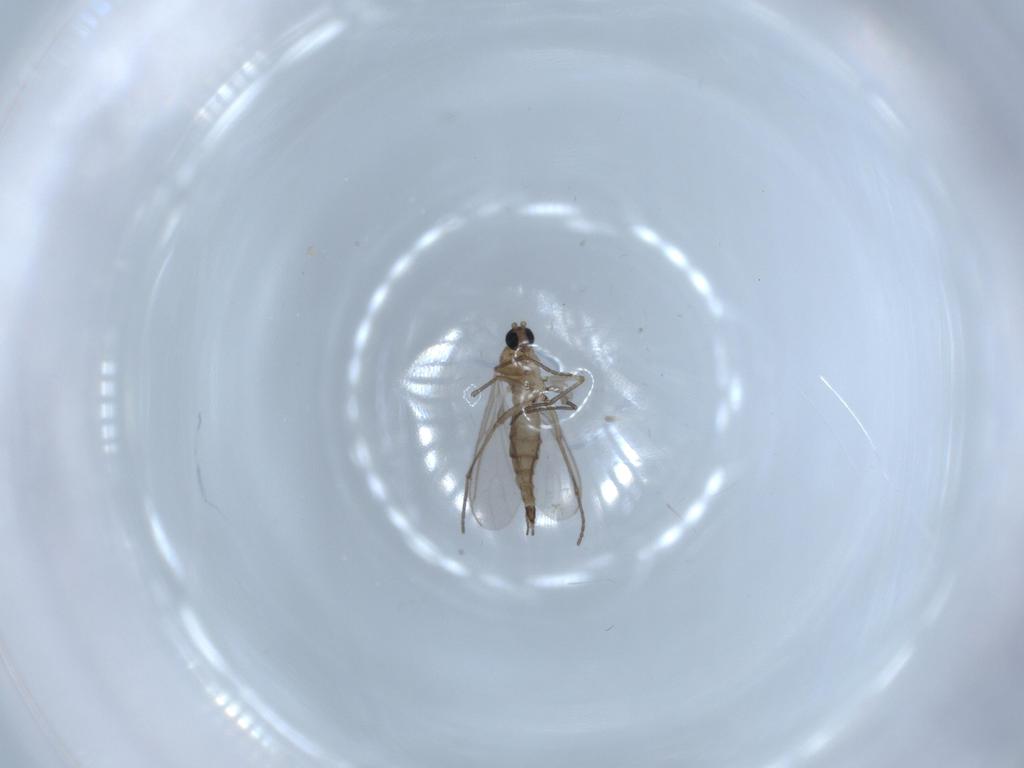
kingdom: Animalia
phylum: Arthropoda
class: Insecta
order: Diptera
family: Sciaridae
